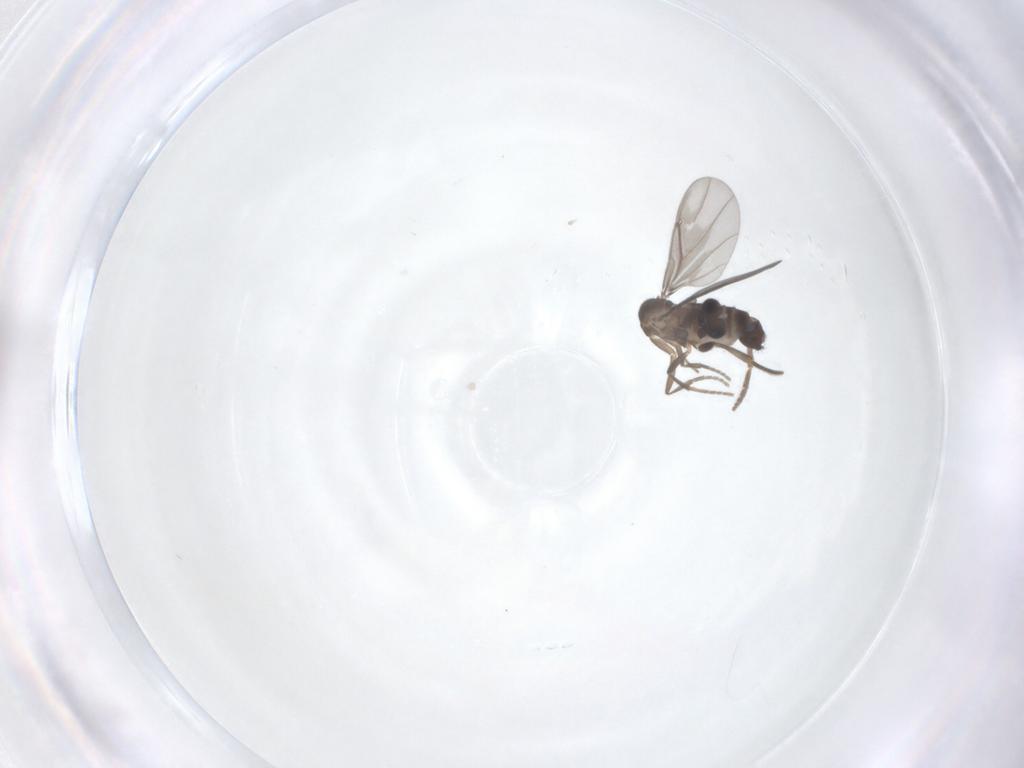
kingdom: Animalia
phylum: Arthropoda
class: Insecta
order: Diptera
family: Phoridae
